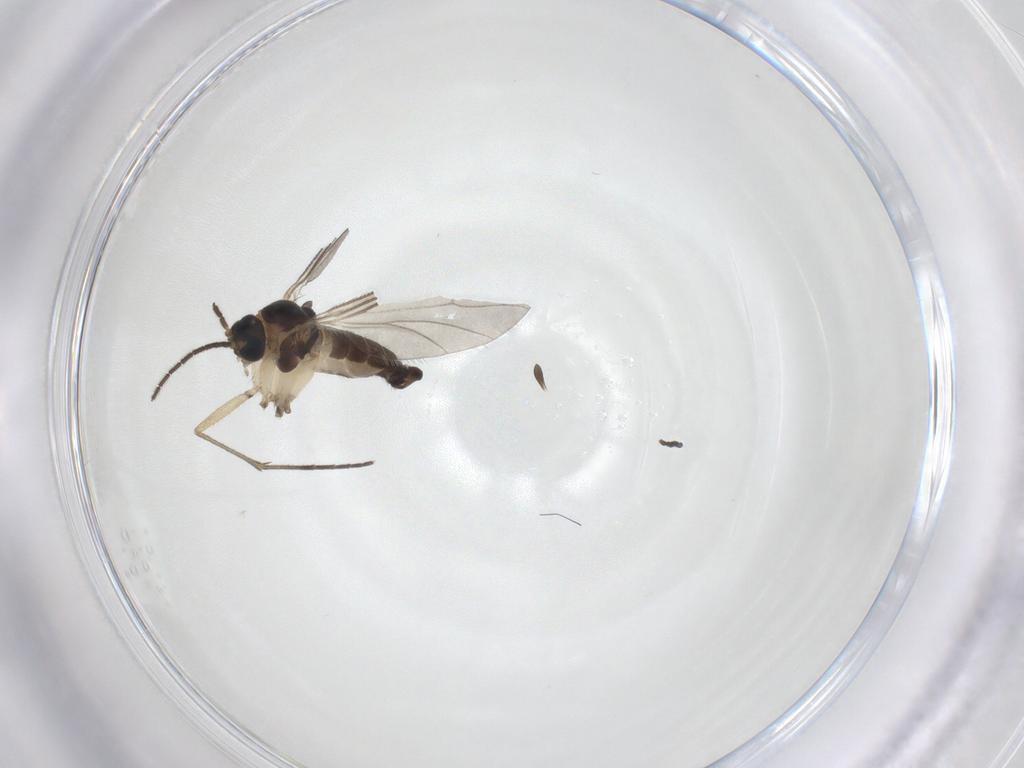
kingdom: Animalia
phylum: Arthropoda
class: Insecta
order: Diptera
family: Sciaridae
